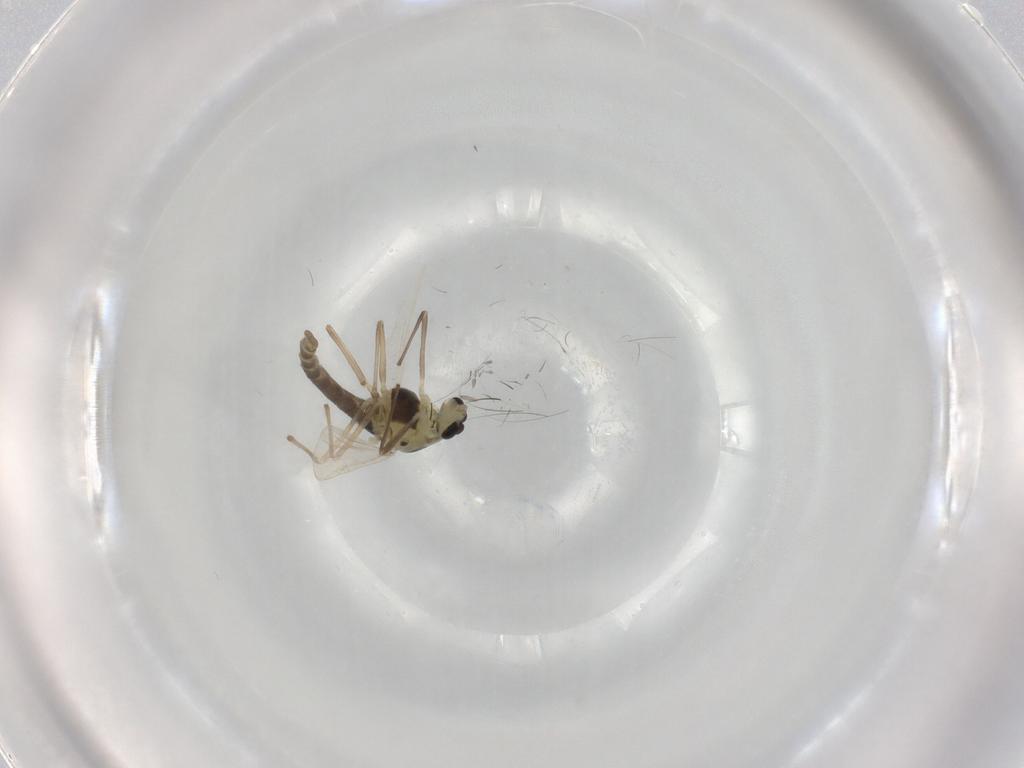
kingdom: Animalia
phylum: Arthropoda
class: Insecta
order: Diptera
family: Chironomidae
